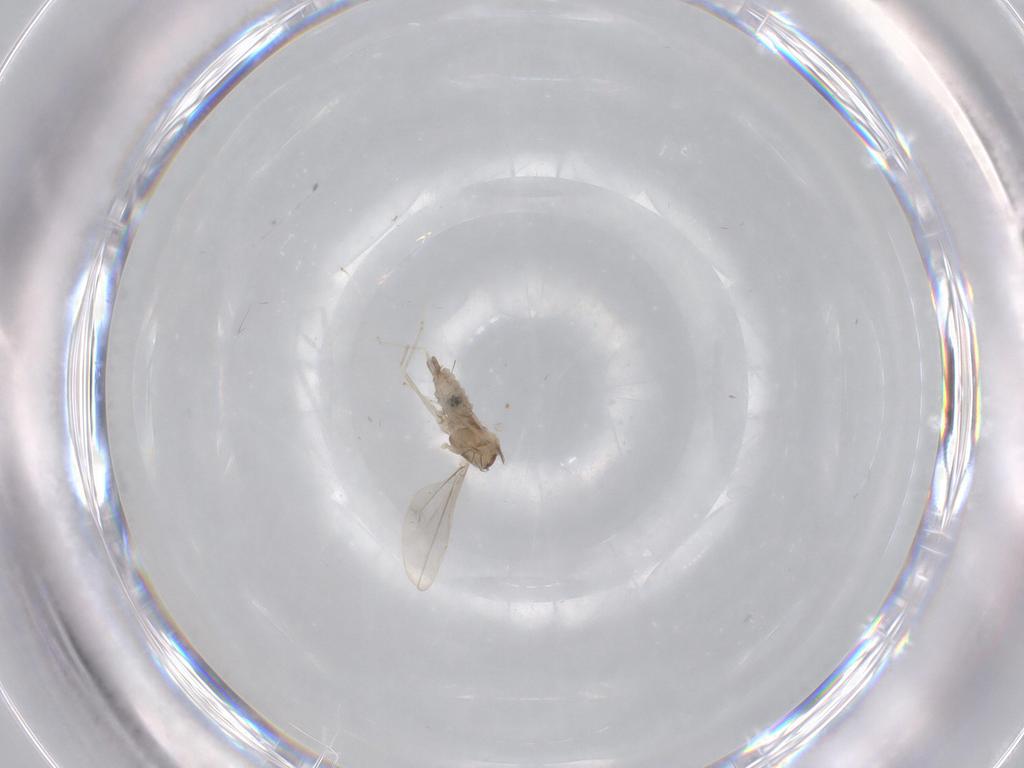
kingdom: Animalia
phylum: Arthropoda
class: Insecta
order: Diptera
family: Cecidomyiidae
